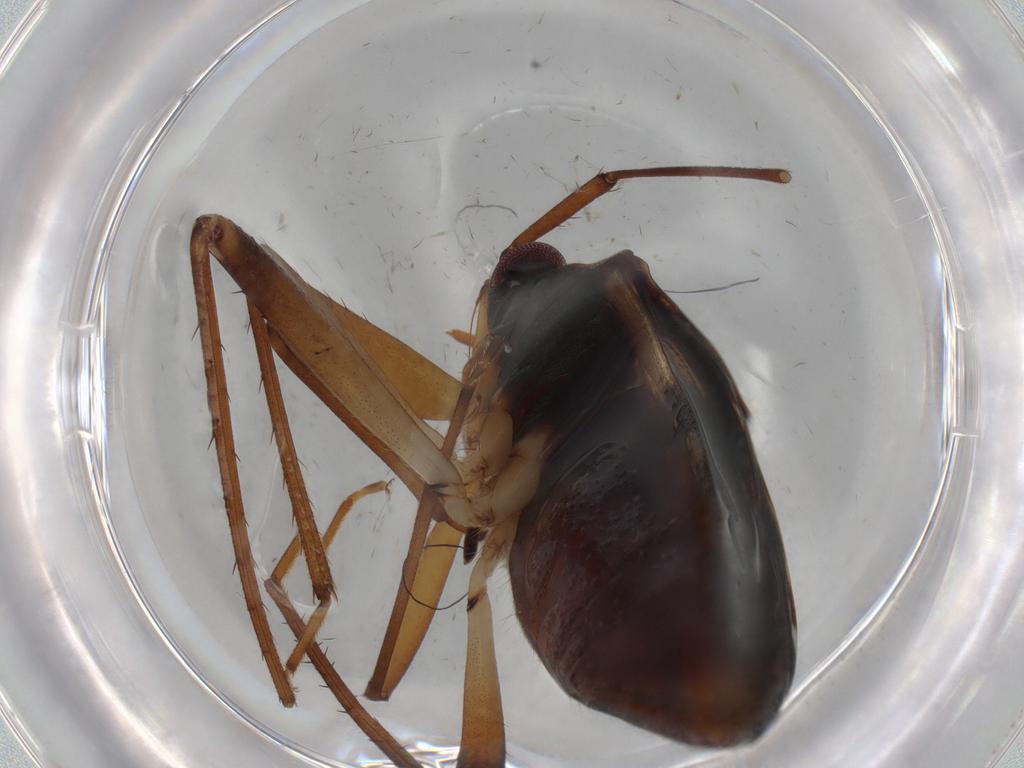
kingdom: Animalia
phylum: Arthropoda
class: Insecta
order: Hemiptera
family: Rhyparochromidae
